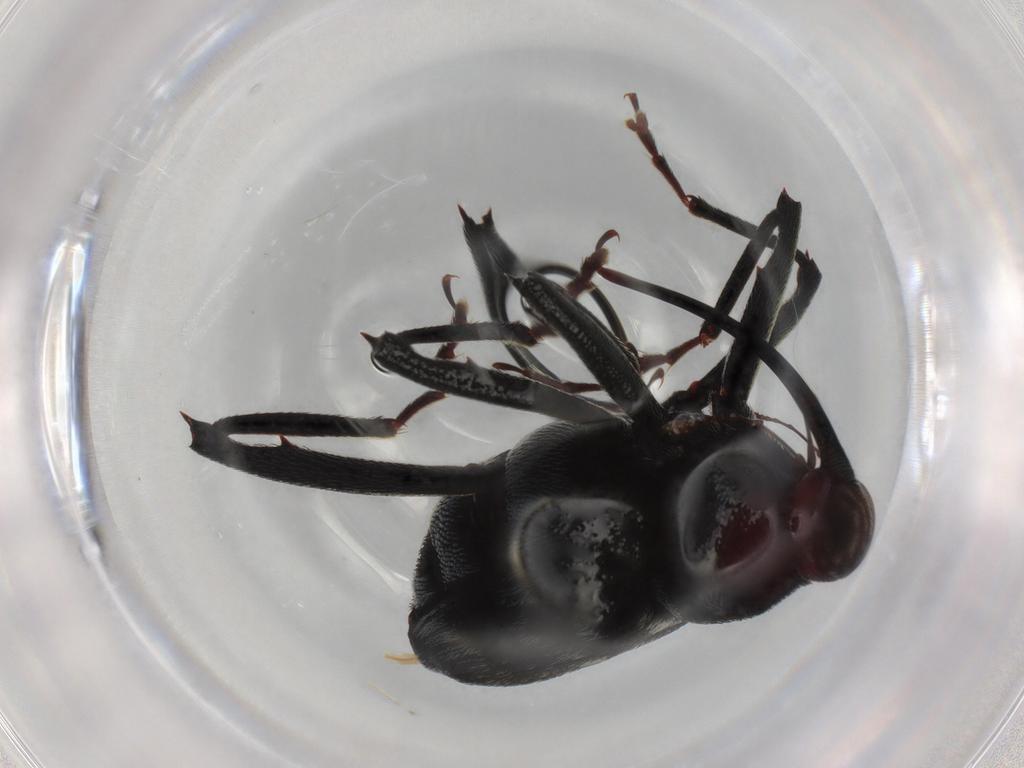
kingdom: Animalia
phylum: Arthropoda
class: Insecta
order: Coleoptera
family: Curculionidae
